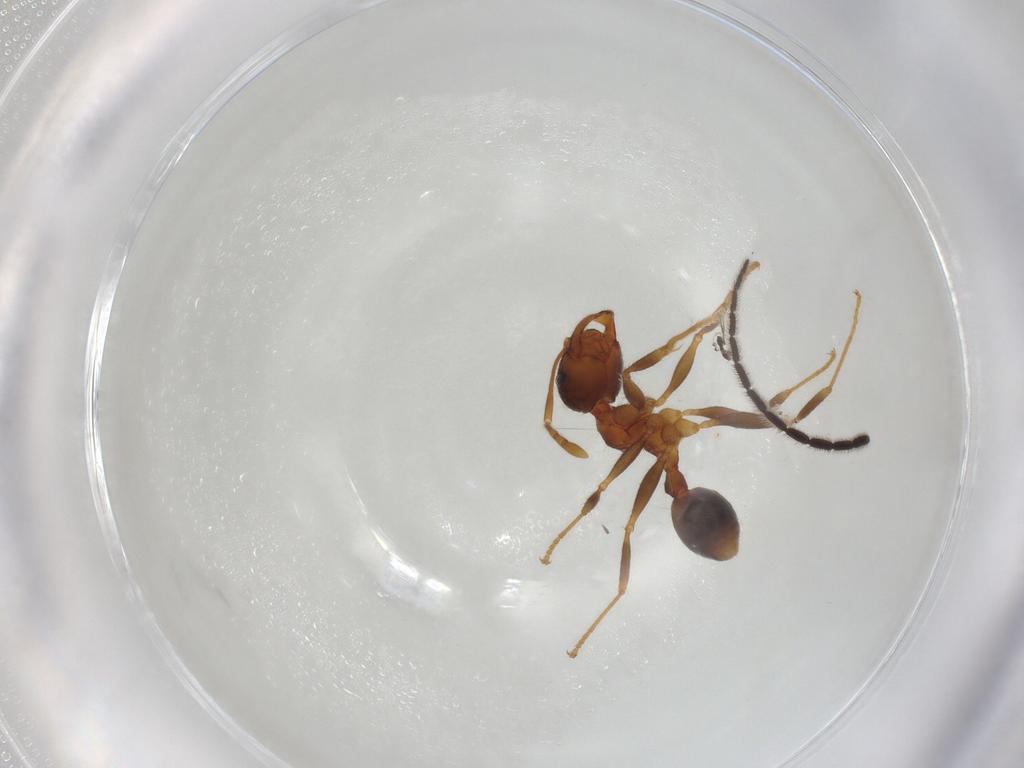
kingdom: Animalia
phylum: Arthropoda
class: Insecta
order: Hymenoptera
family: Formicidae
